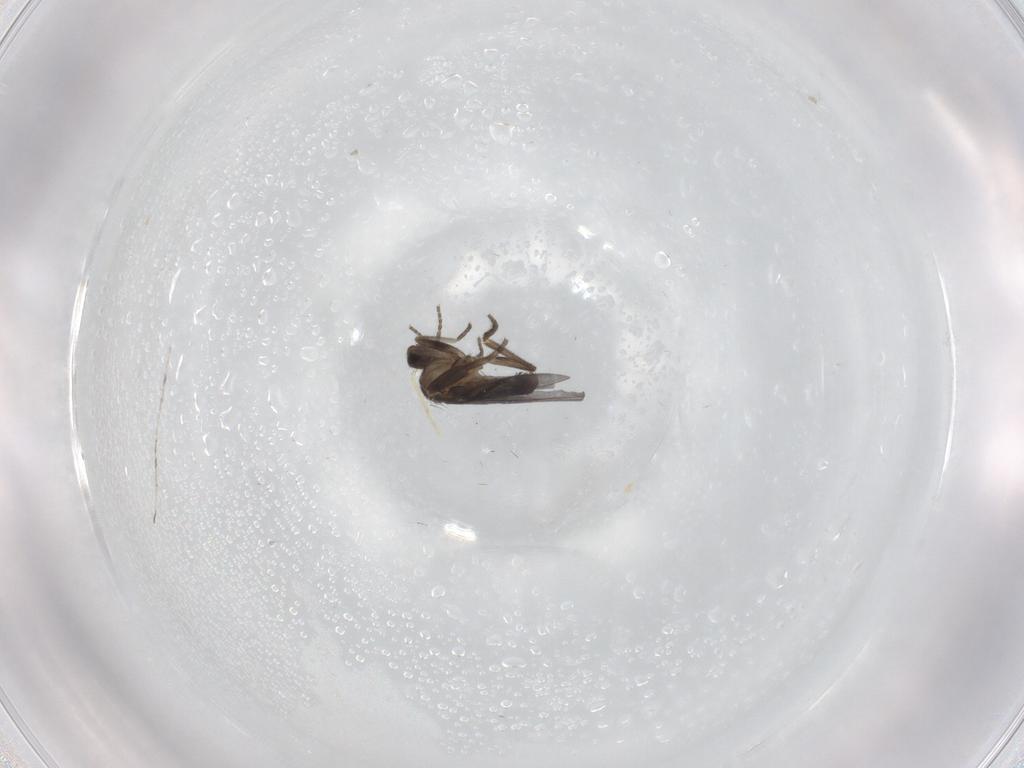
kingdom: Animalia
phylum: Arthropoda
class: Insecta
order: Diptera
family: Phoridae
